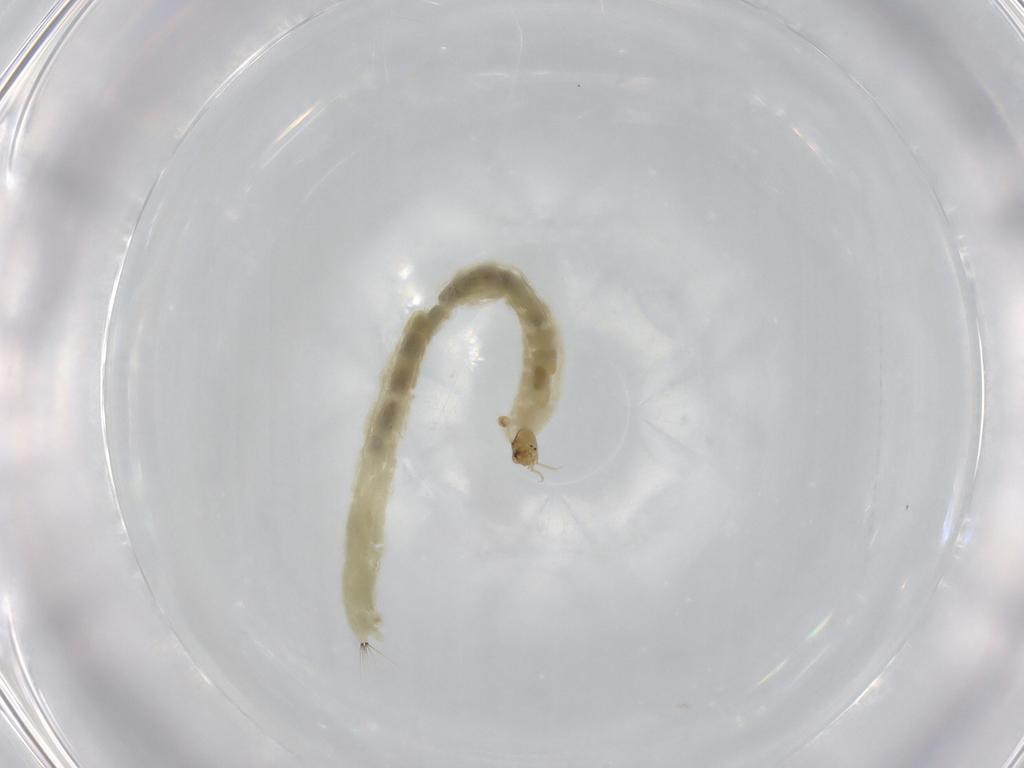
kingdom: Animalia
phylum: Arthropoda
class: Insecta
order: Diptera
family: Chironomidae
